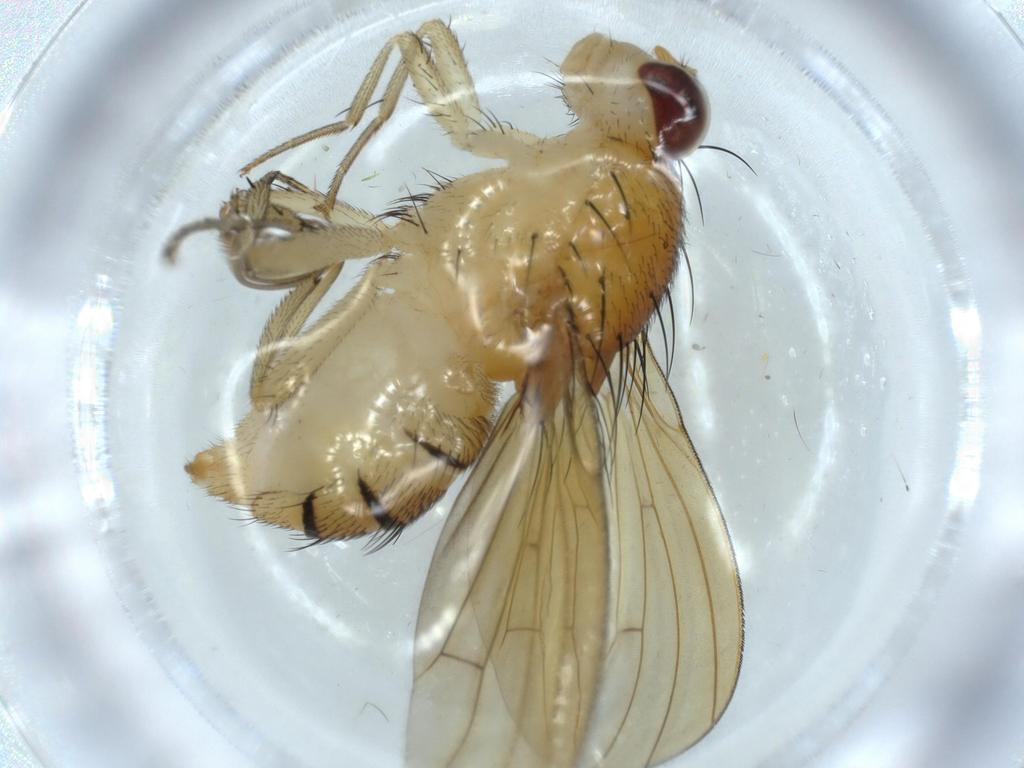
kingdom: Animalia
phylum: Arthropoda
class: Insecta
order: Diptera
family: Sciaridae
